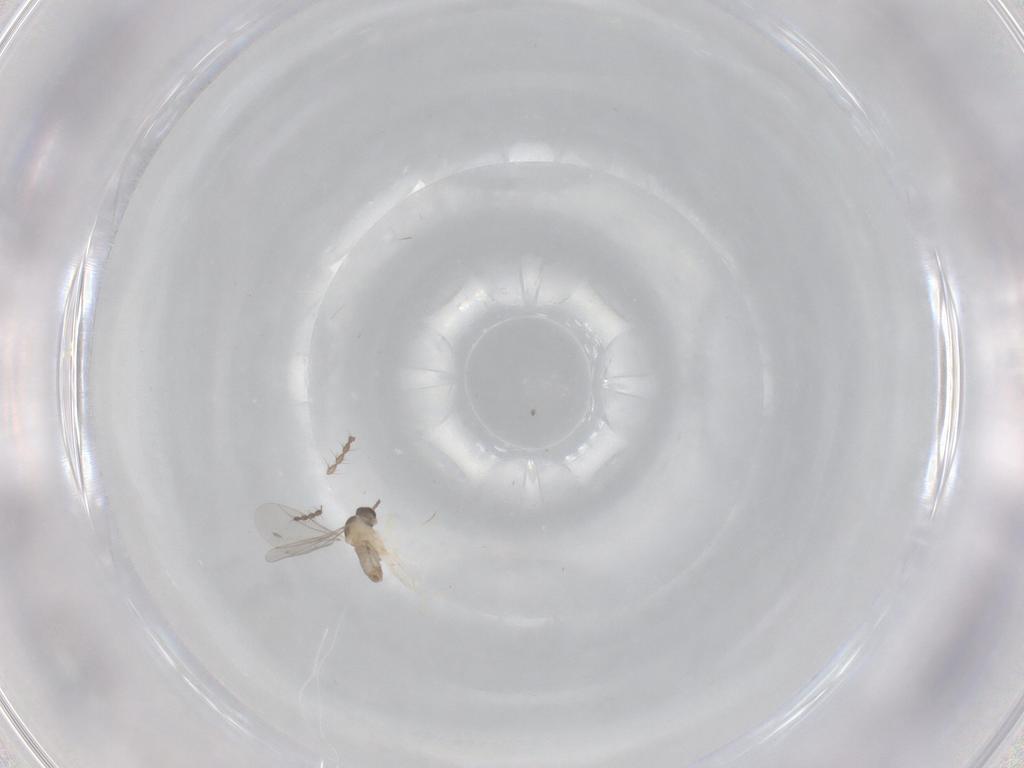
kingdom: Animalia
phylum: Arthropoda
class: Insecta
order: Diptera
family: Cecidomyiidae
